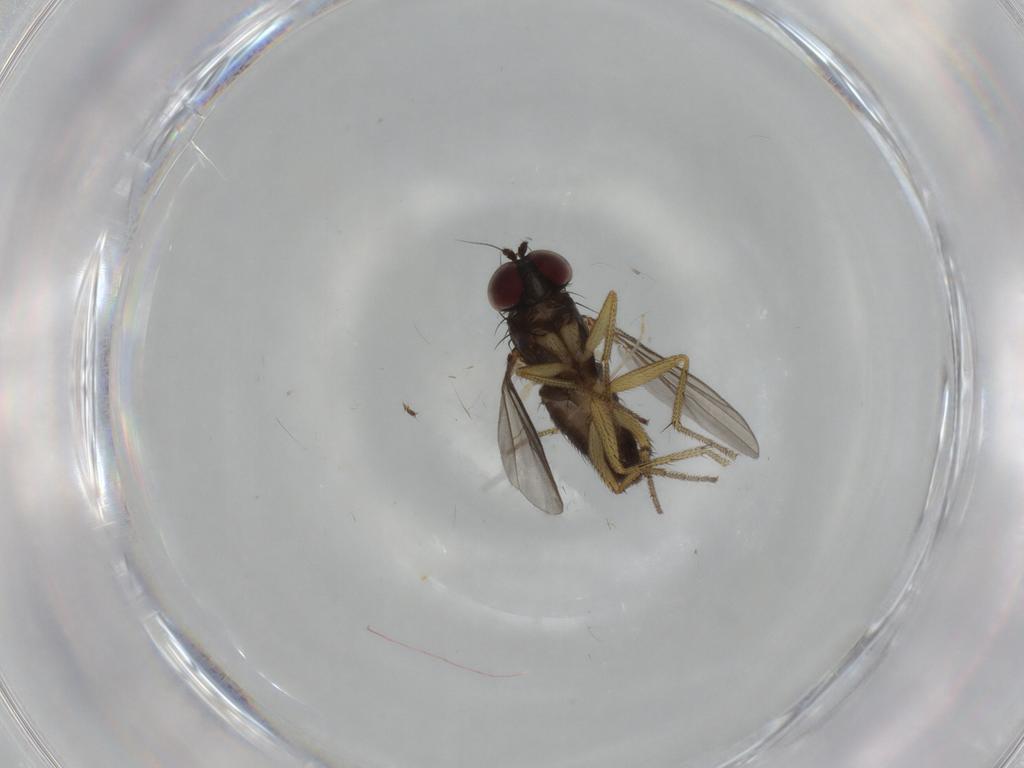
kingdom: Animalia
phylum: Arthropoda
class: Insecta
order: Diptera
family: Dolichopodidae
